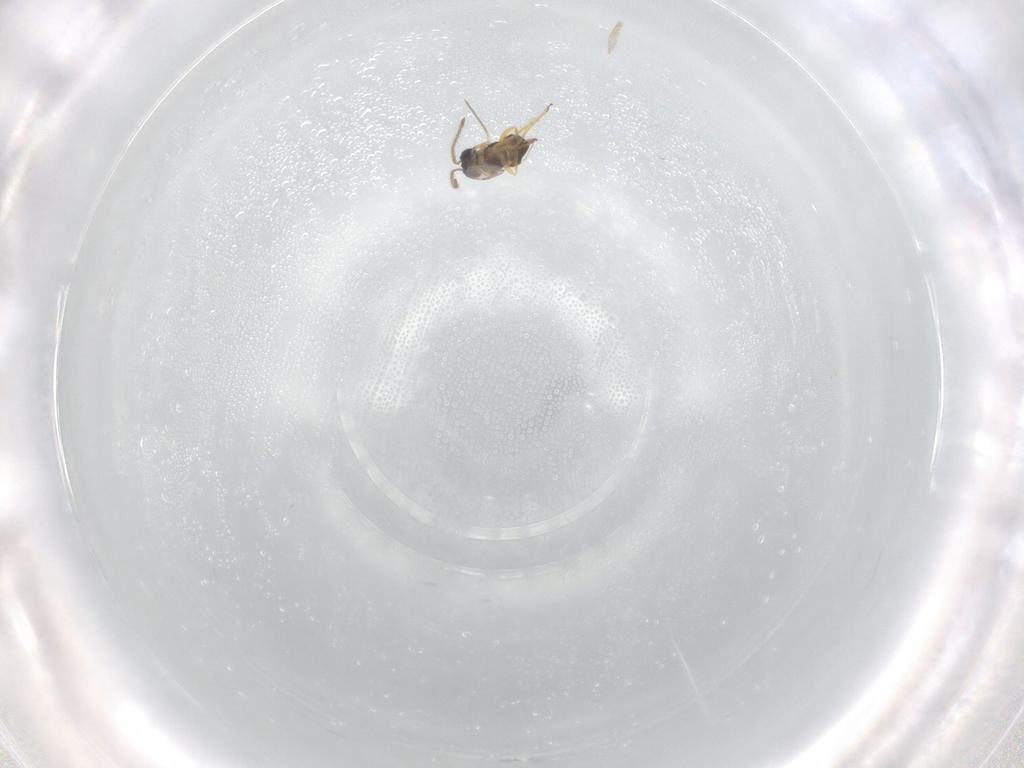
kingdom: Animalia
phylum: Arthropoda
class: Insecta
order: Hymenoptera
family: Encyrtidae
